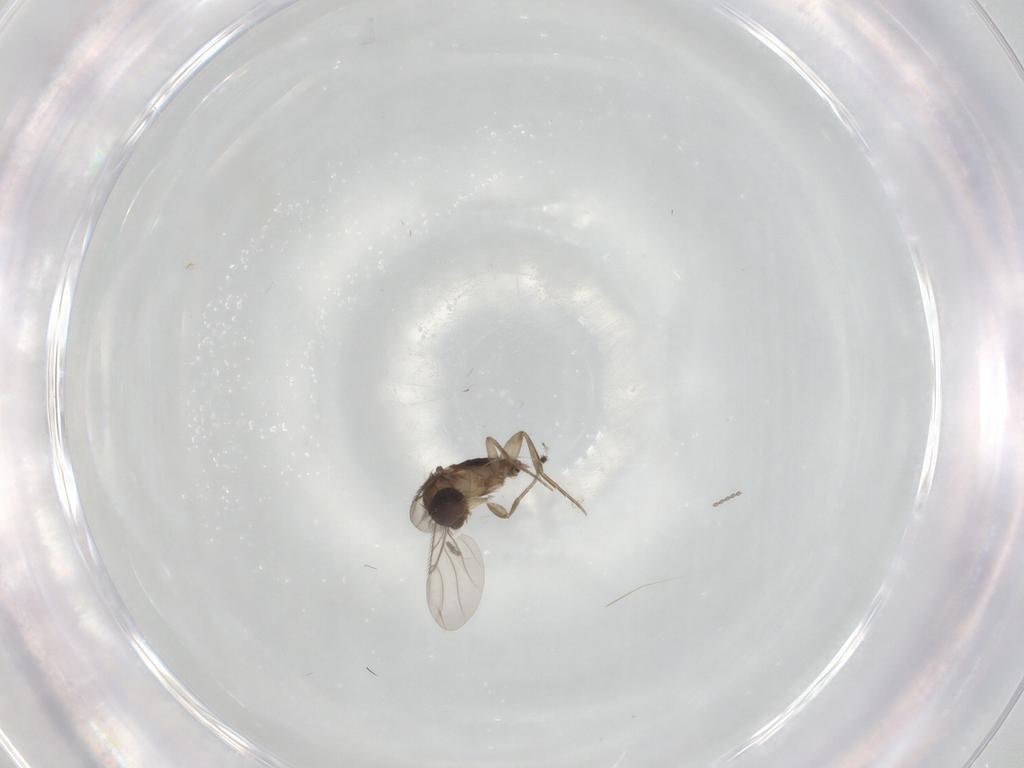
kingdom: Animalia
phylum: Arthropoda
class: Insecta
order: Diptera
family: Phoridae
